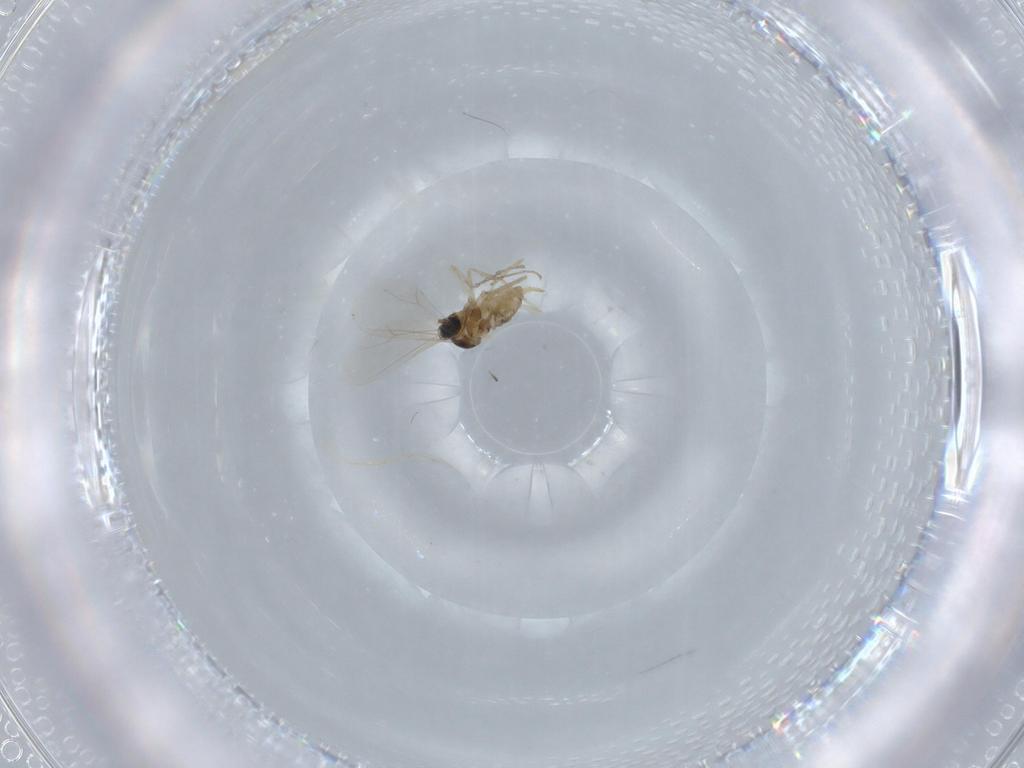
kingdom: Animalia
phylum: Arthropoda
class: Insecta
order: Diptera
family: Cecidomyiidae
